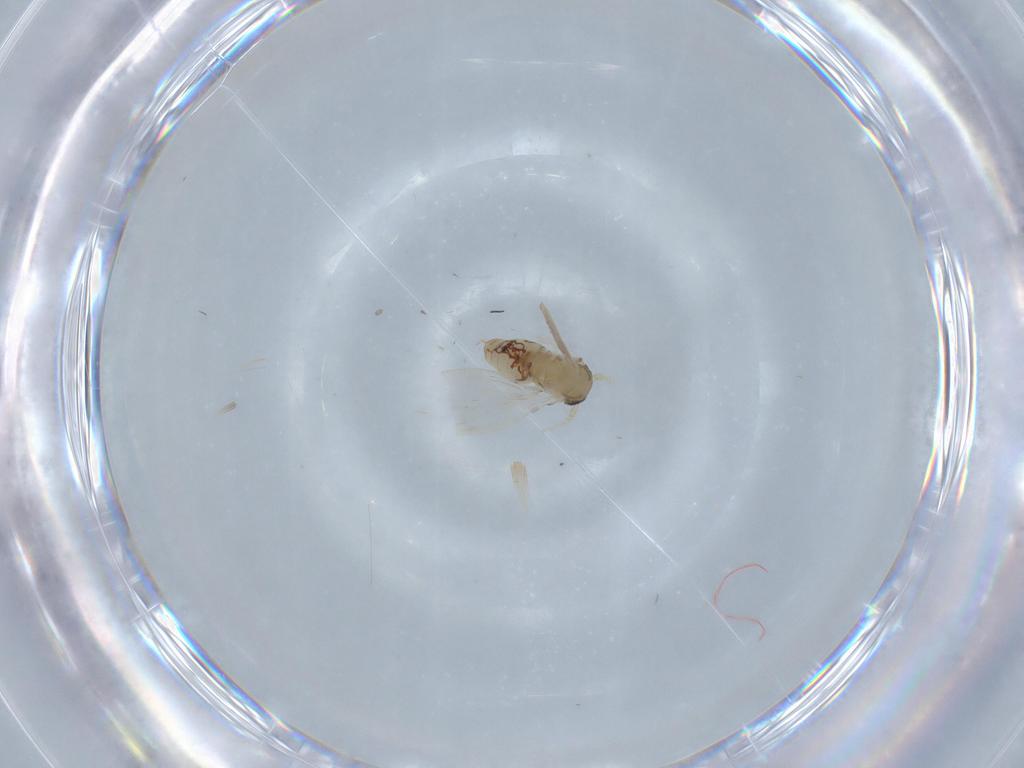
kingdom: Animalia
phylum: Arthropoda
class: Insecta
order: Diptera
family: Psychodidae
